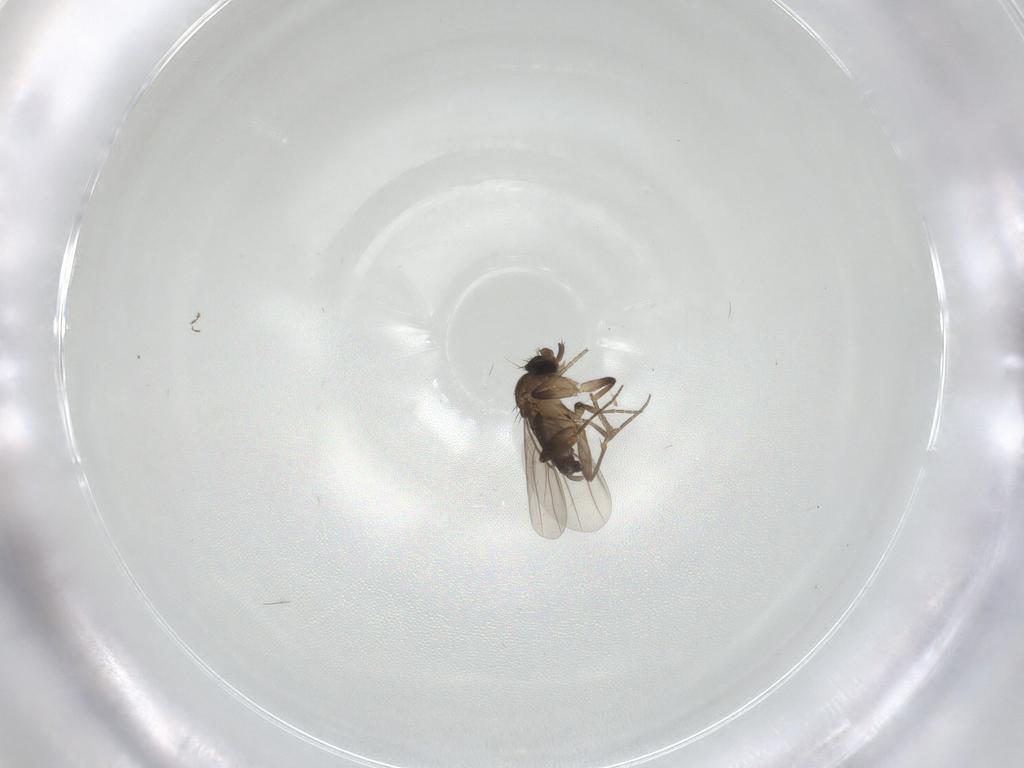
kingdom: Animalia
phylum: Arthropoda
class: Insecta
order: Diptera
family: Phoridae
